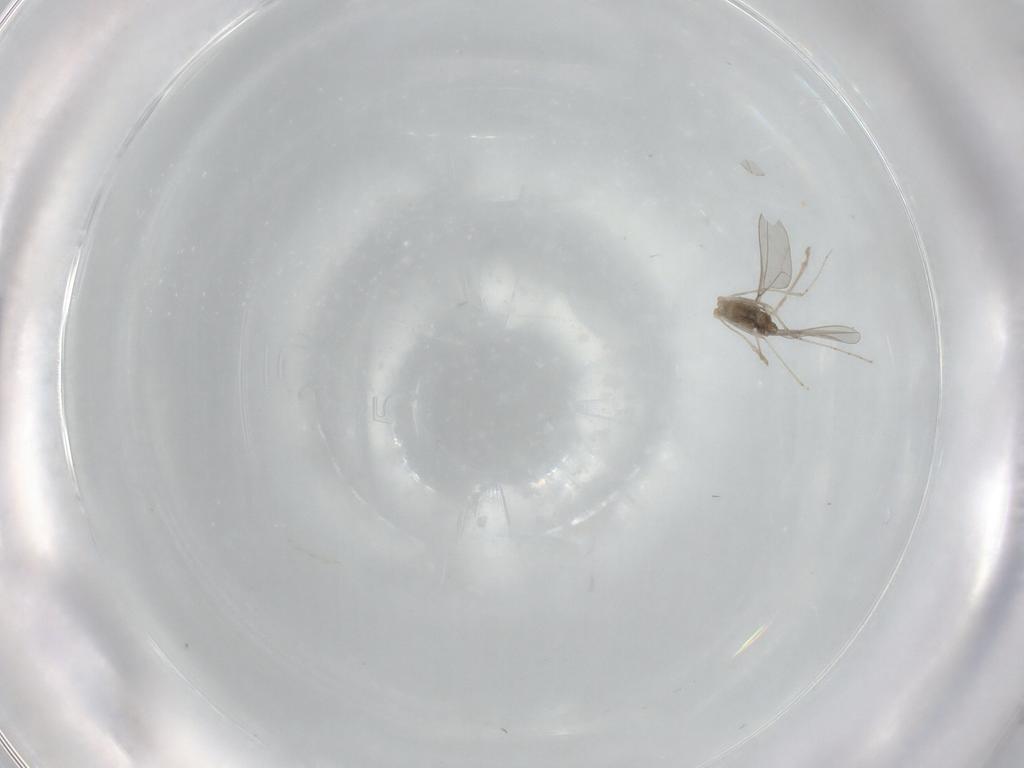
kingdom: Animalia
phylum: Arthropoda
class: Insecta
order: Diptera
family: Cecidomyiidae
